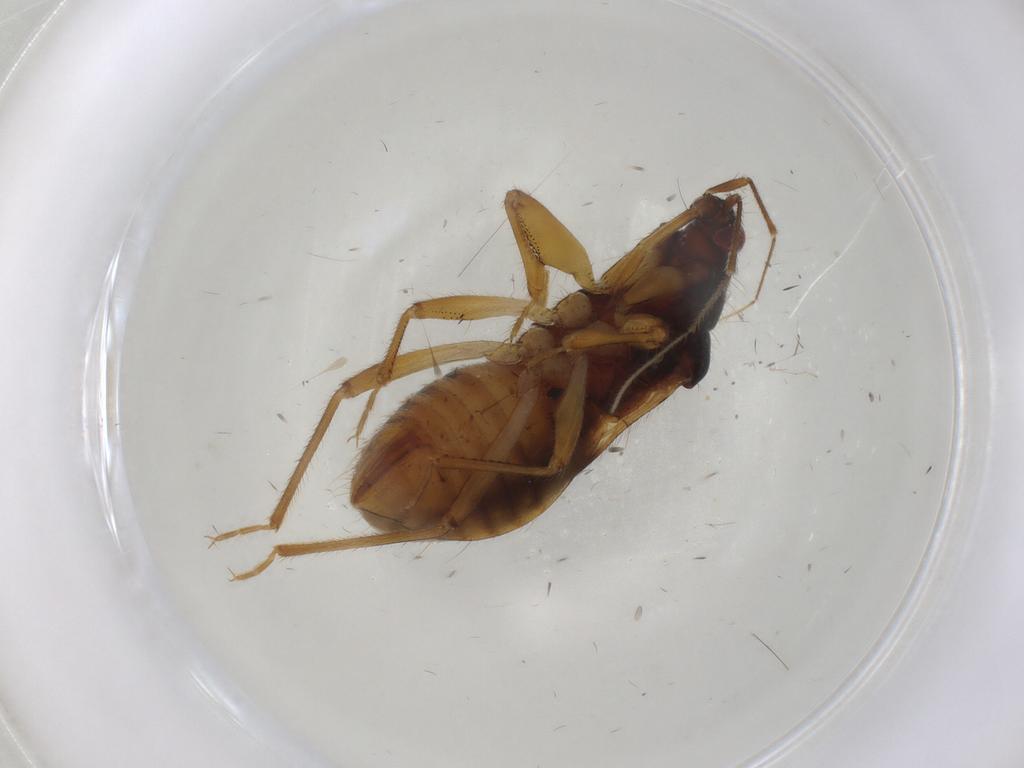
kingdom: Animalia
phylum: Arthropoda
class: Insecta
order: Hemiptera
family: Nabidae
